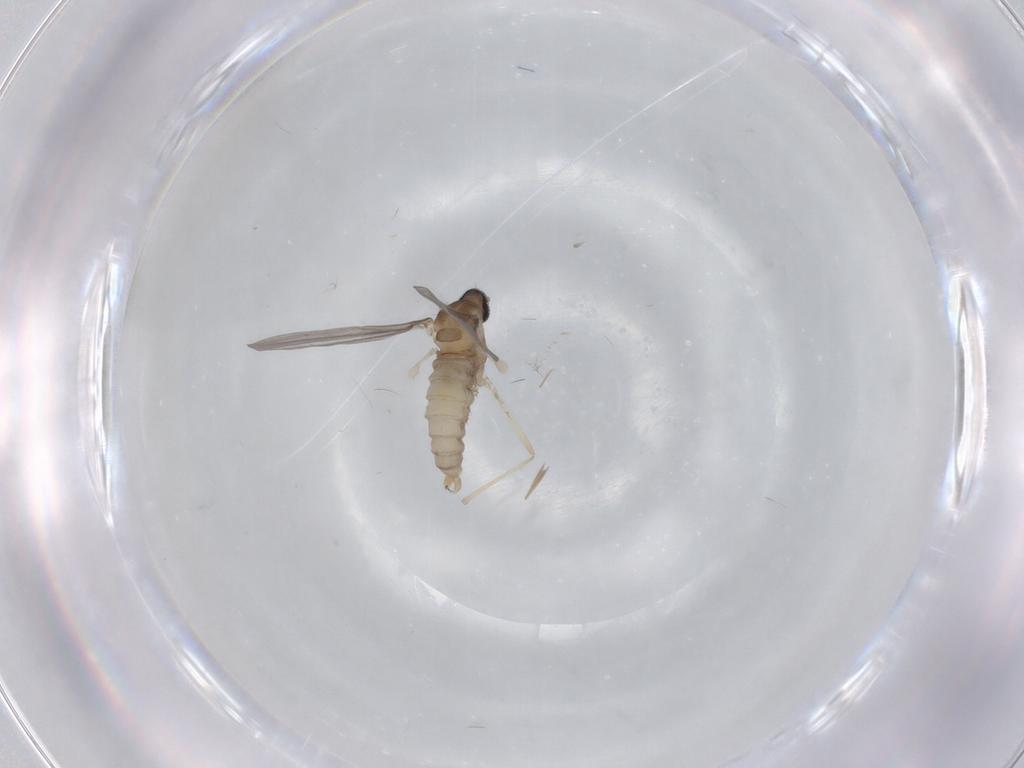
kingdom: Animalia
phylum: Arthropoda
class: Insecta
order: Diptera
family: Cecidomyiidae
